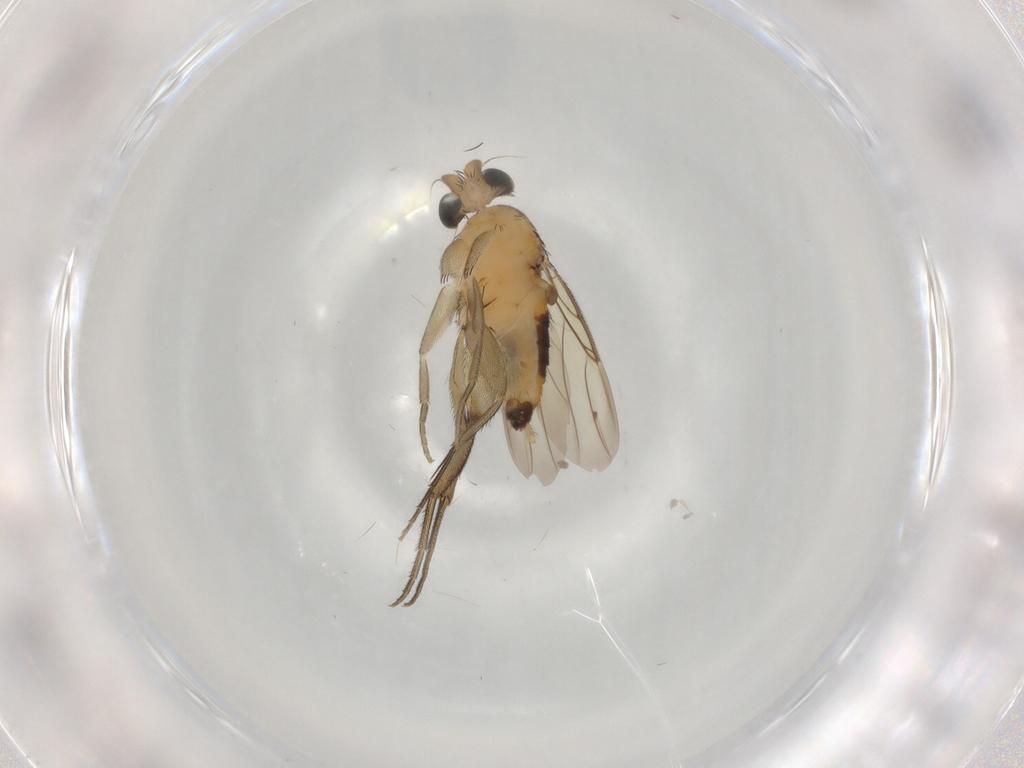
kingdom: Animalia
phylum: Arthropoda
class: Insecta
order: Diptera
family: Phoridae
